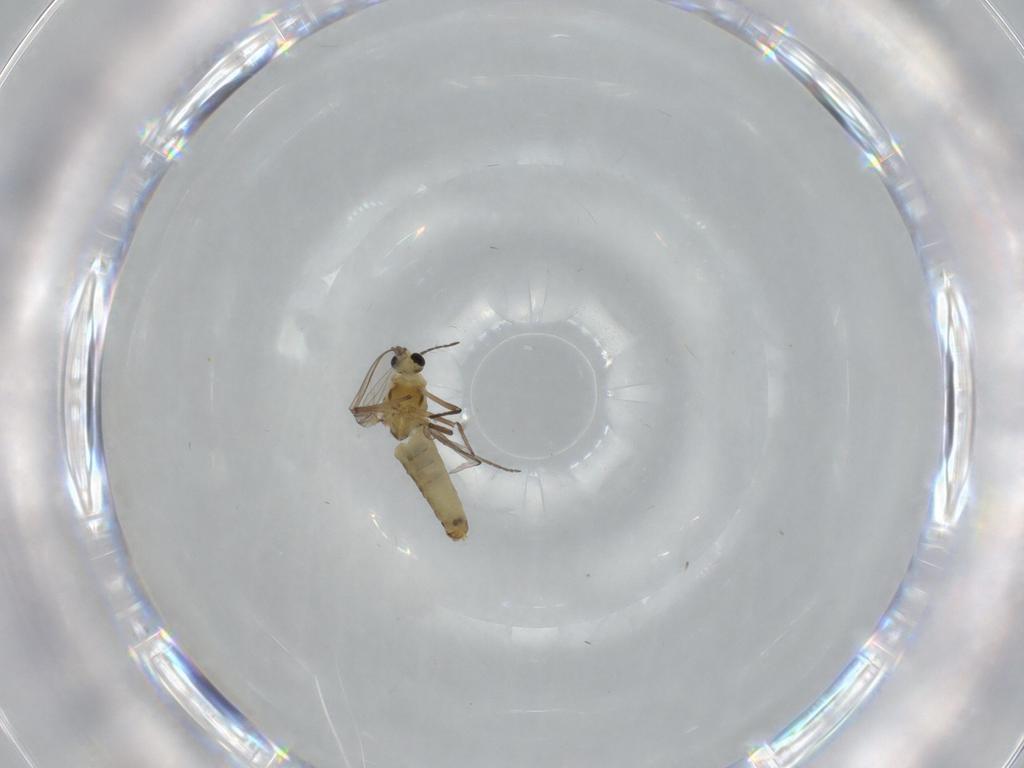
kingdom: Animalia
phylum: Arthropoda
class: Insecta
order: Diptera
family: Chironomidae
